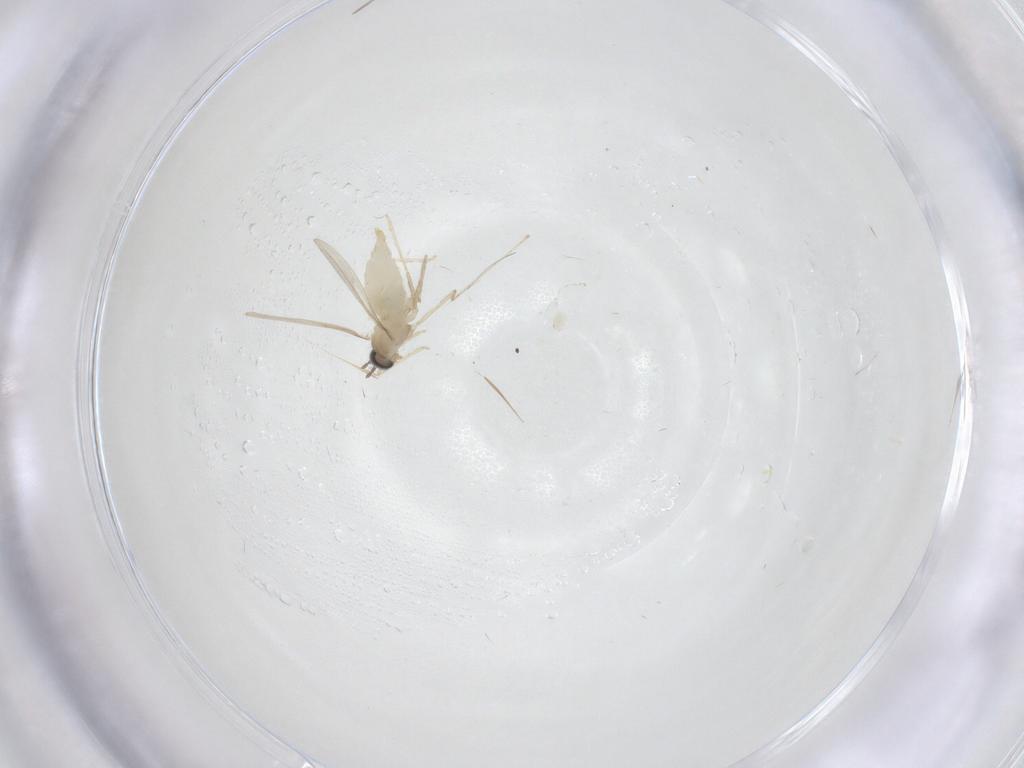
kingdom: Animalia
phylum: Arthropoda
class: Insecta
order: Diptera
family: Cecidomyiidae
